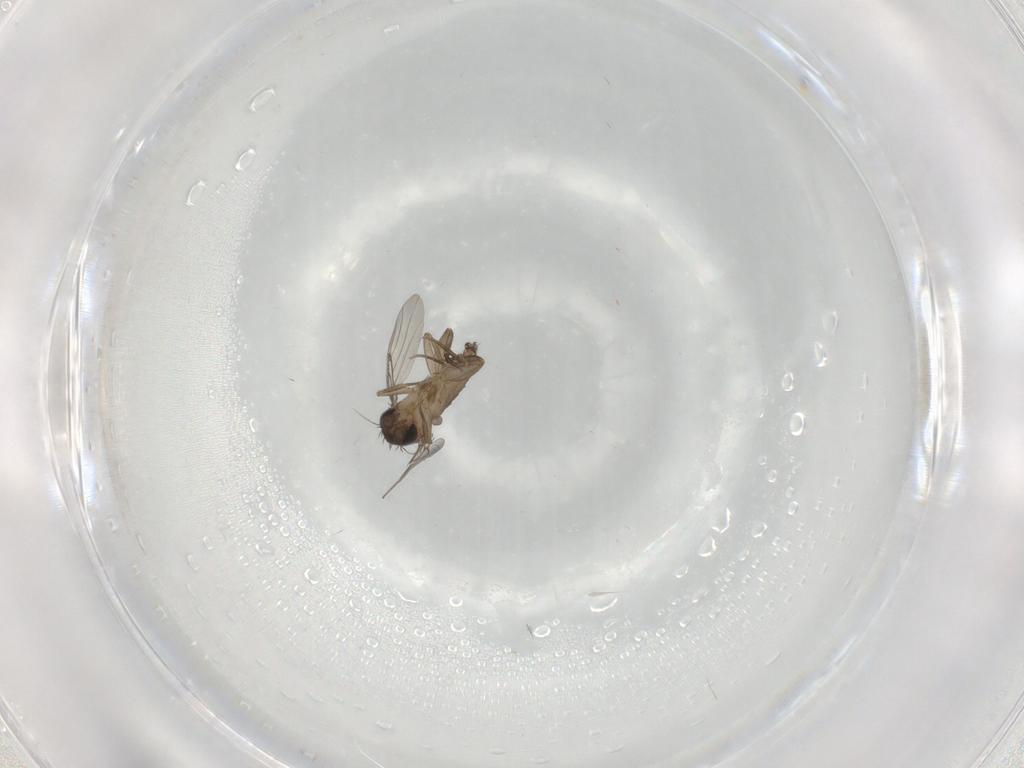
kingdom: Animalia
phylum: Arthropoda
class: Insecta
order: Diptera
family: Phoridae
